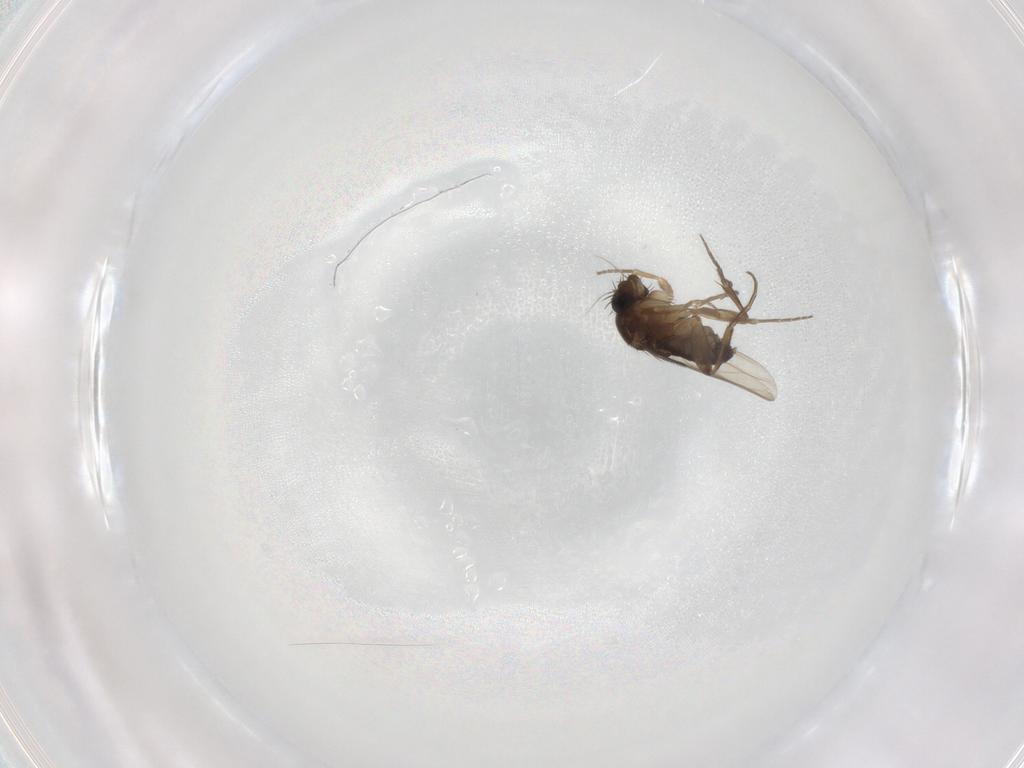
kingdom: Animalia
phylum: Arthropoda
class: Insecta
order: Diptera
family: Phoridae
